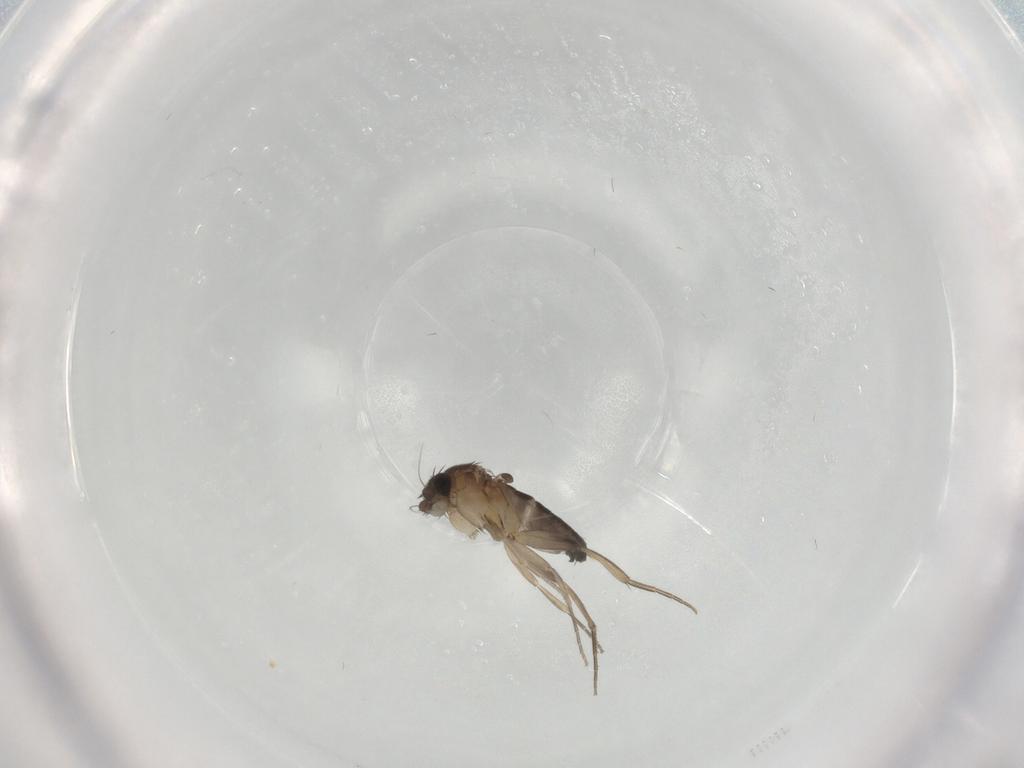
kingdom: Animalia
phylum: Arthropoda
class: Insecta
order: Diptera
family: Phoridae
